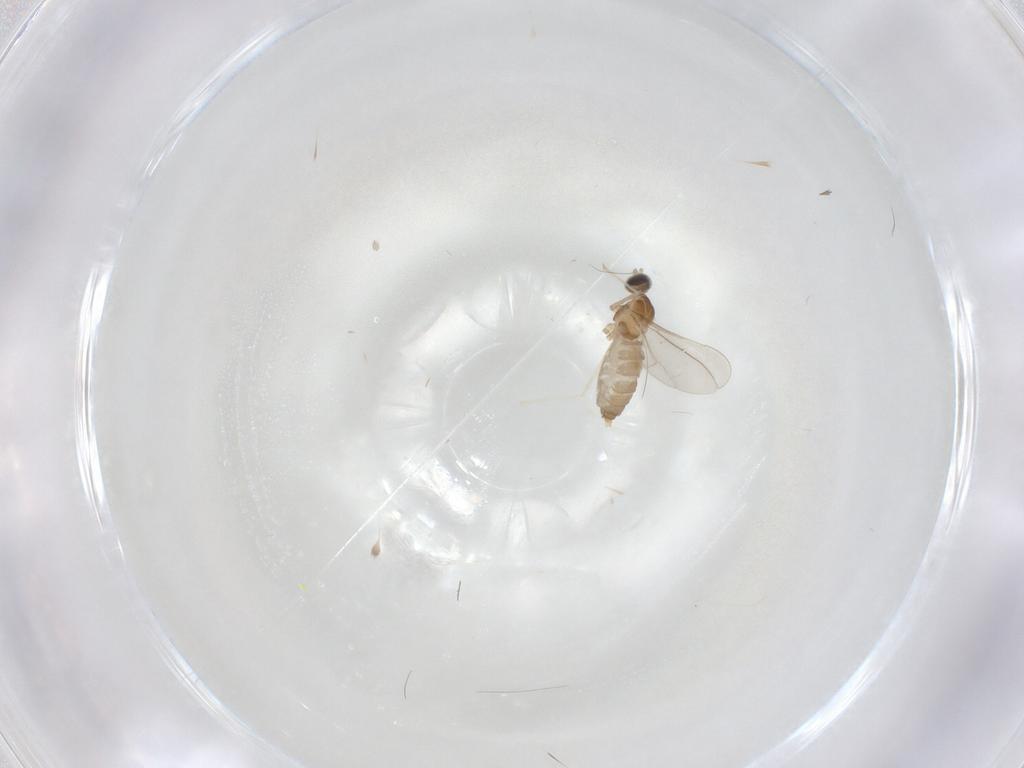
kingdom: Animalia
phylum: Arthropoda
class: Insecta
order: Diptera
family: Cecidomyiidae
